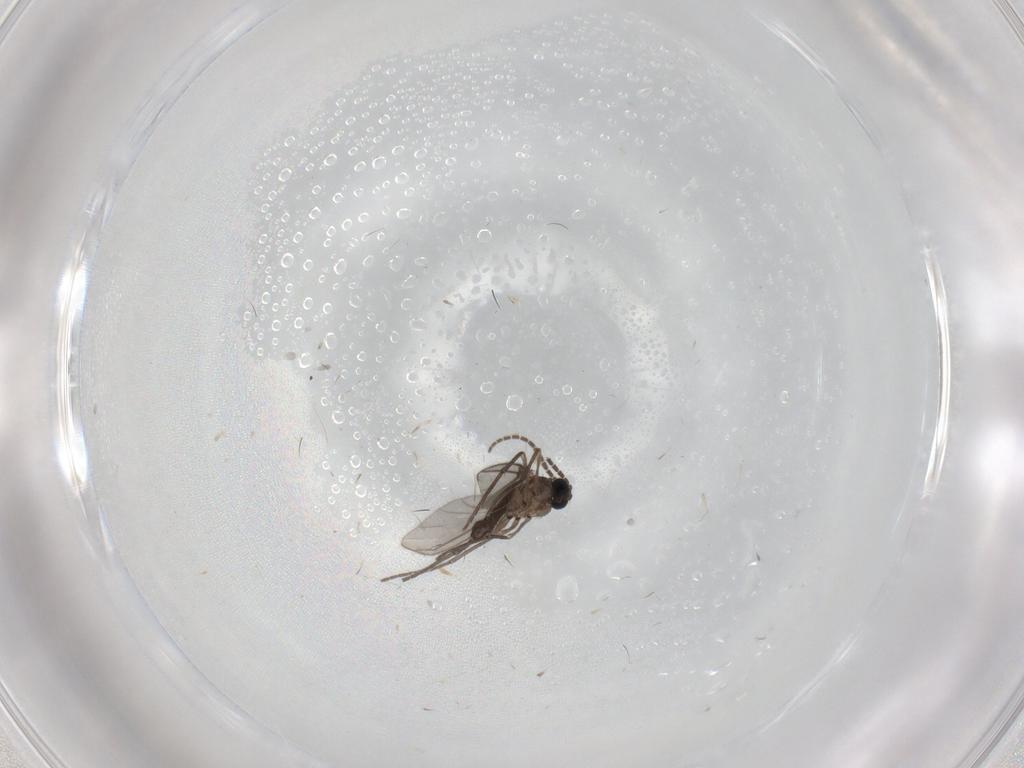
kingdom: Animalia
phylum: Arthropoda
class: Insecta
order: Diptera
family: Sciaridae
